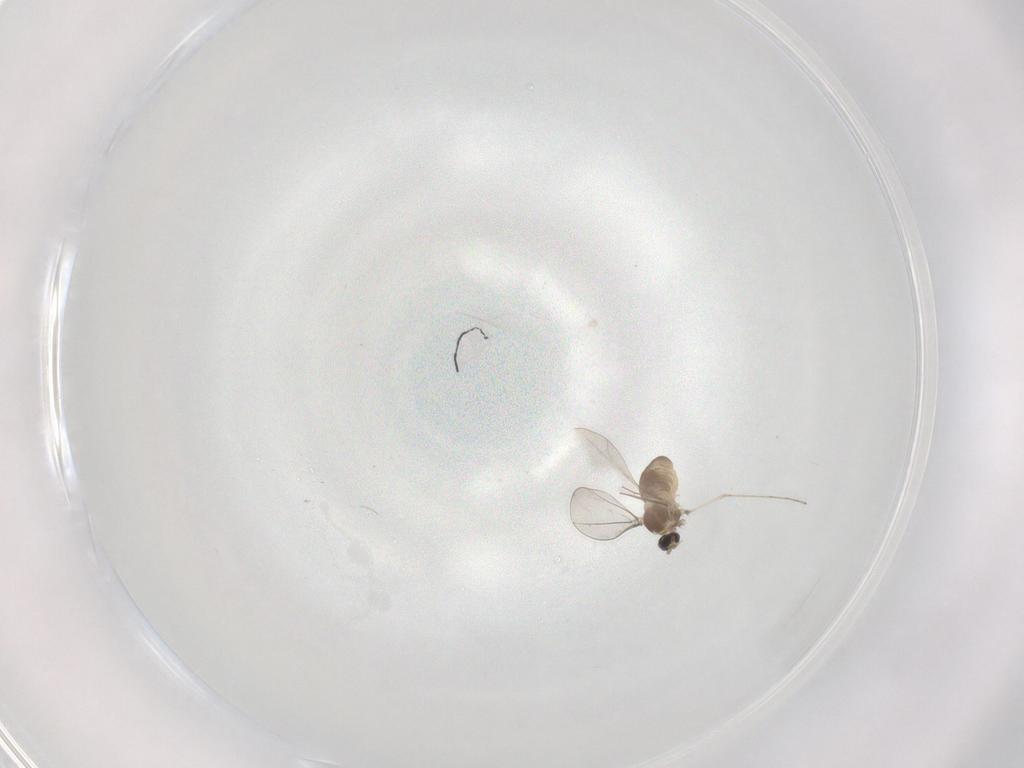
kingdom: Animalia
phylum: Arthropoda
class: Insecta
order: Diptera
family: Cecidomyiidae
